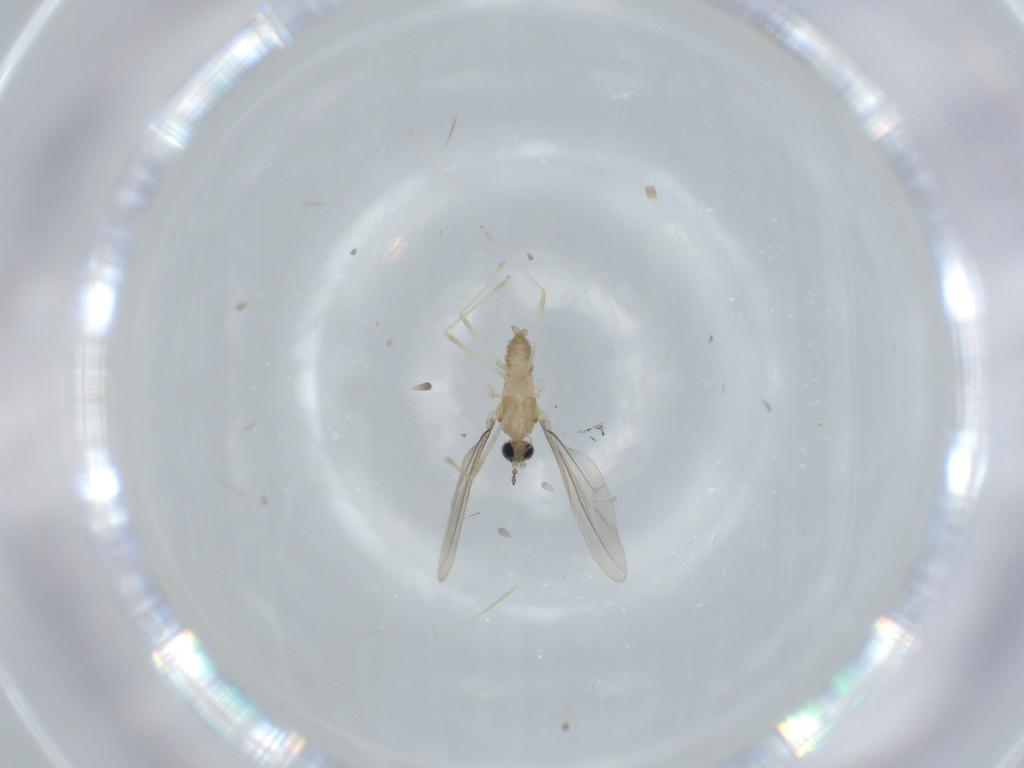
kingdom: Animalia
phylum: Arthropoda
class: Insecta
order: Diptera
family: Cecidomyiidae
